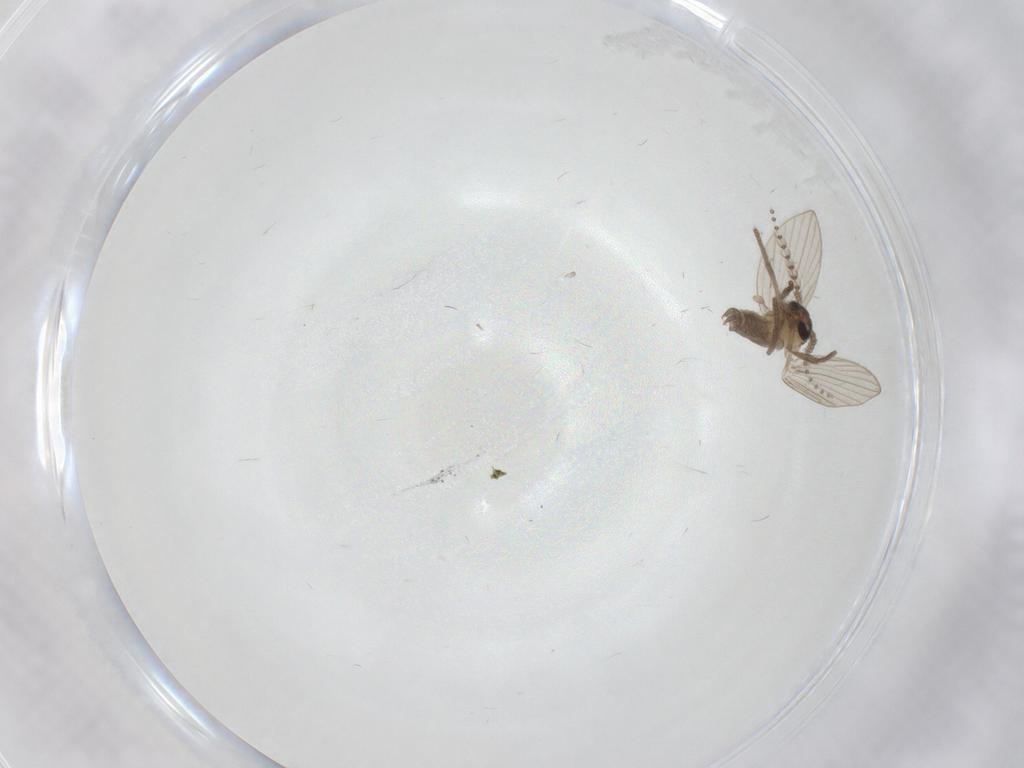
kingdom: Animalia
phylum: Arthropoda
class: Insecta
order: Diptera
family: Psychodidae
